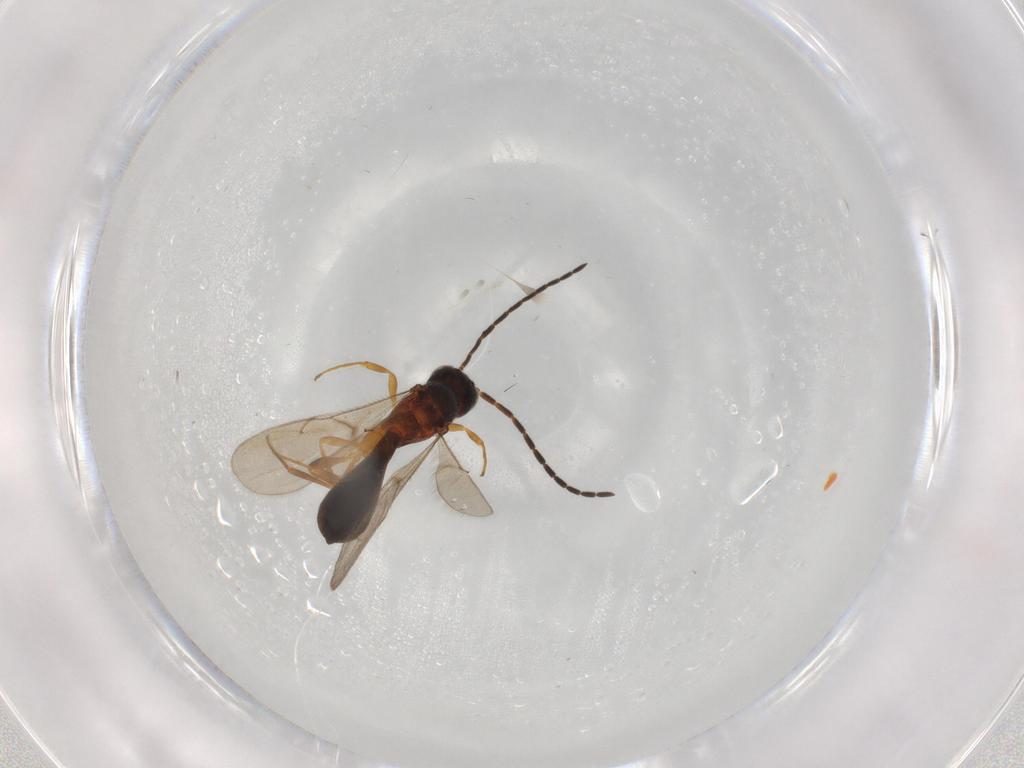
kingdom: Animalia
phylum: Arthropoda
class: Insecta
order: Hymenoptera
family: Scelionidae
